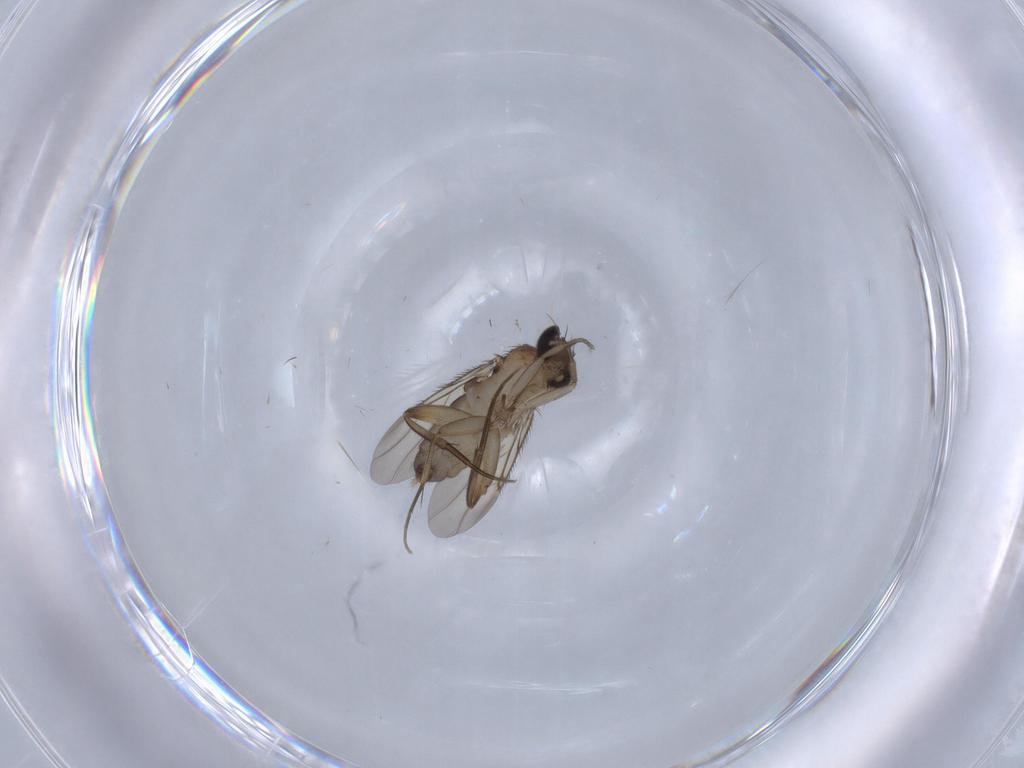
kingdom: Animalia
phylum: Arthropoda
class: Insecta
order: Diptera
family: Phoridae
